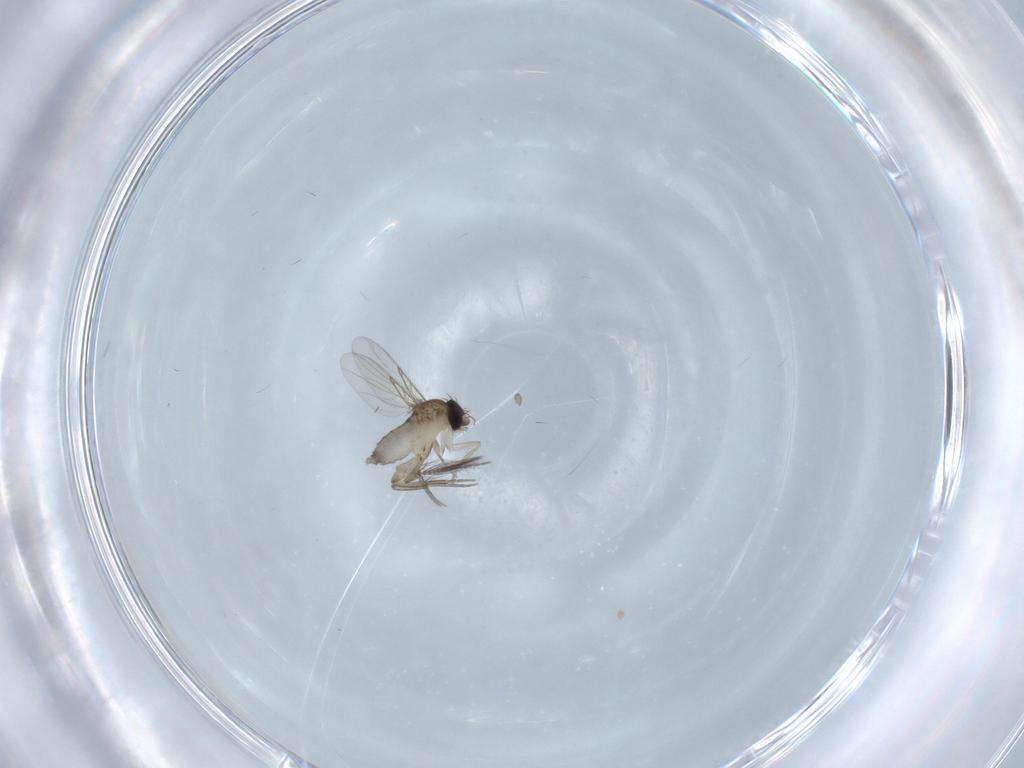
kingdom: Animalia
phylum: Arthropoda
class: Insecta
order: Diptera
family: Phoridae
